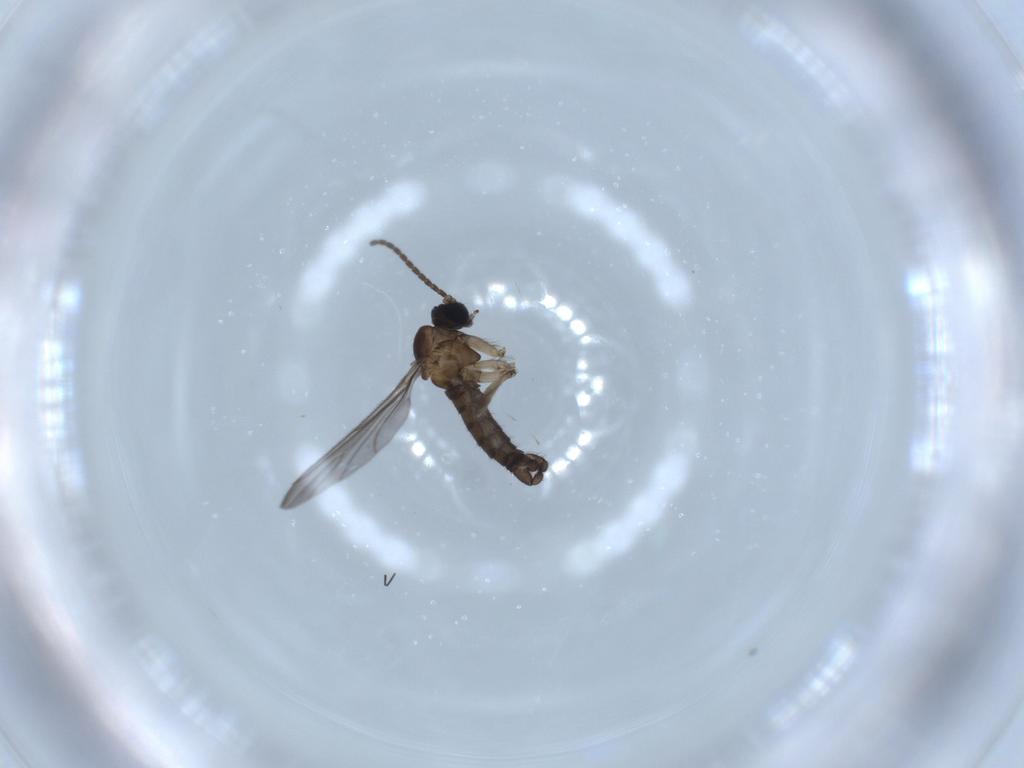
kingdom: Animalia
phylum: Arthropoda
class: Insecta
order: Diptera
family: Sciaridae
